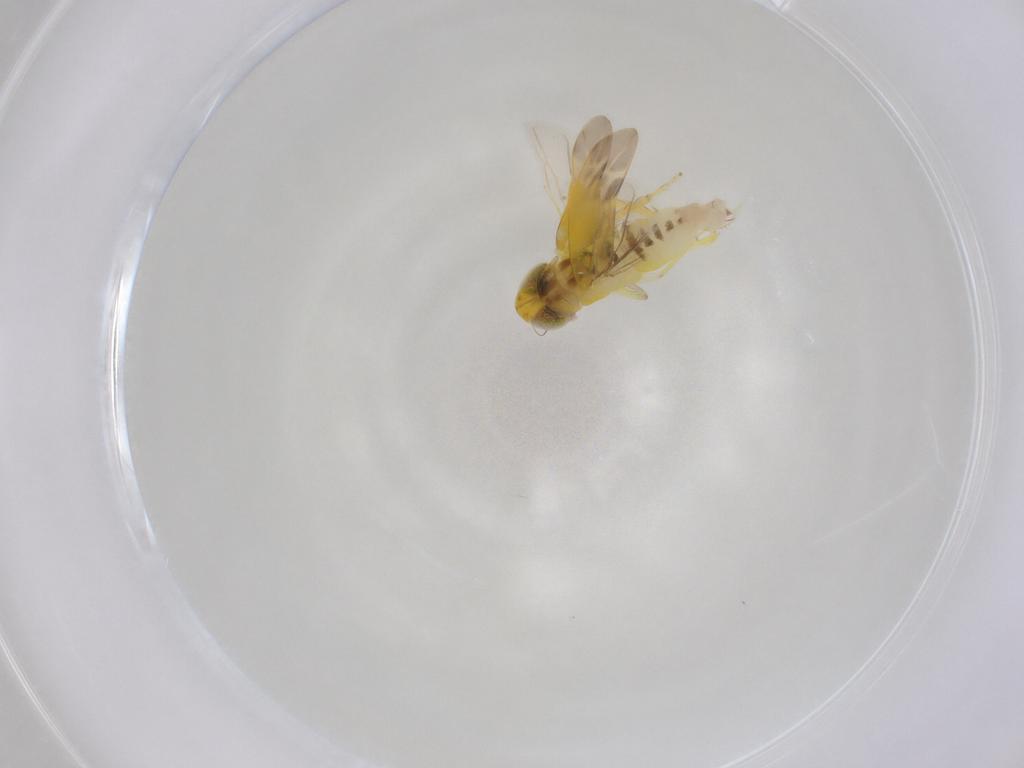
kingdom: Animalia
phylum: Arthropoda
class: Insecta
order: Hemiptera
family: Cicadellidae
